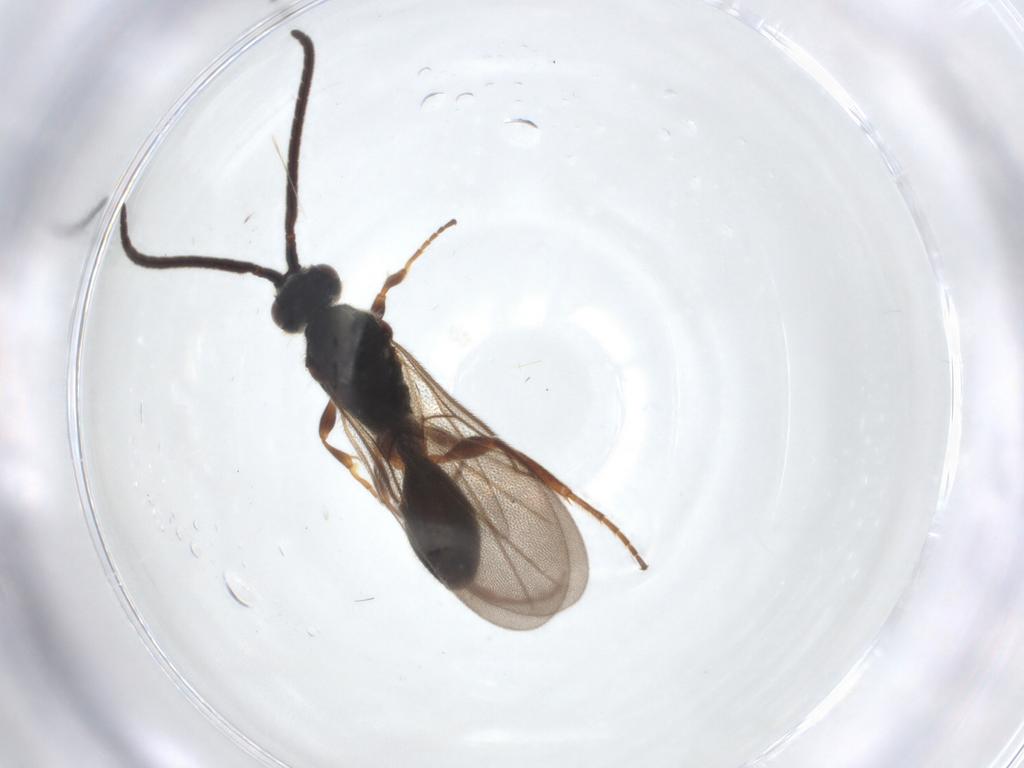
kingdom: Animalia
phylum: Arthropoda
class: Insecta
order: Hymenoptera
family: Diapriidae
